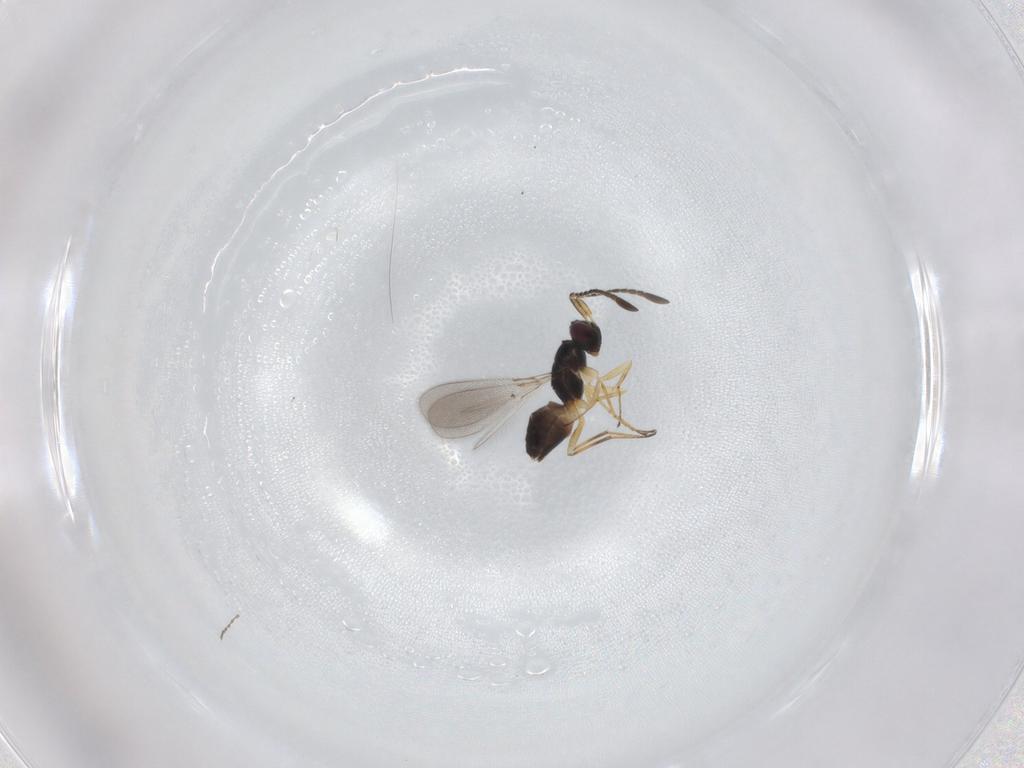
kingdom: Animalia
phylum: Arthropoda
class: Insecta
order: Hymenoptera
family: Mymaridae
